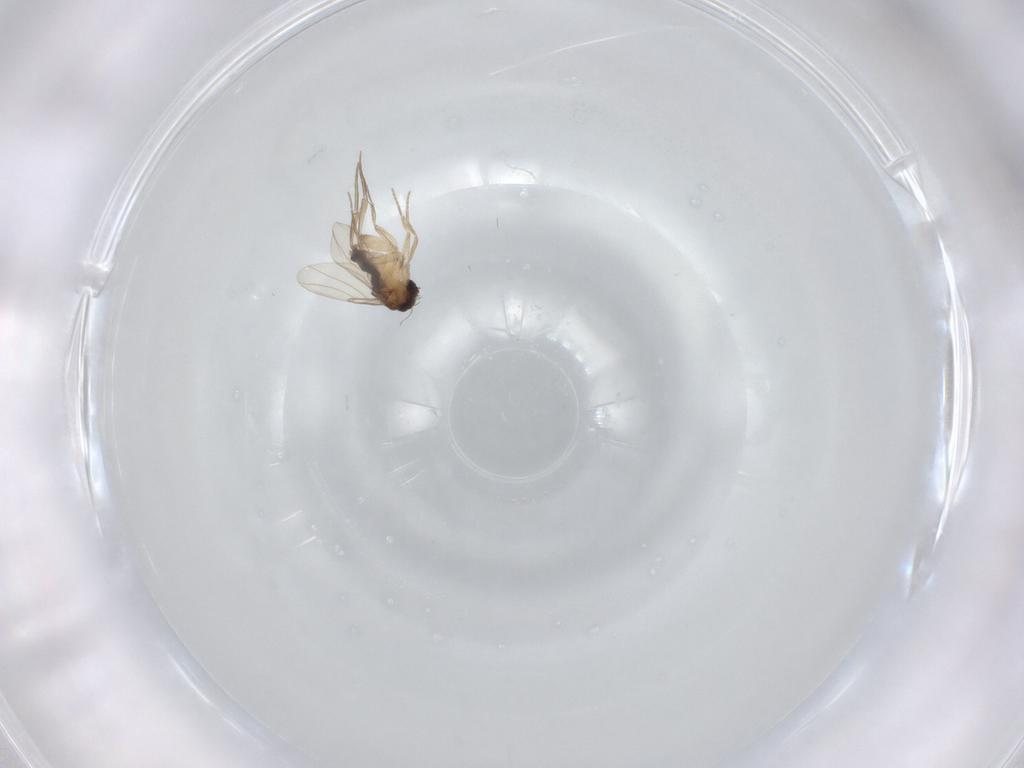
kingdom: Animalia
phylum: Arthropoda
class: Insecta
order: Diptera
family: Phoridae
